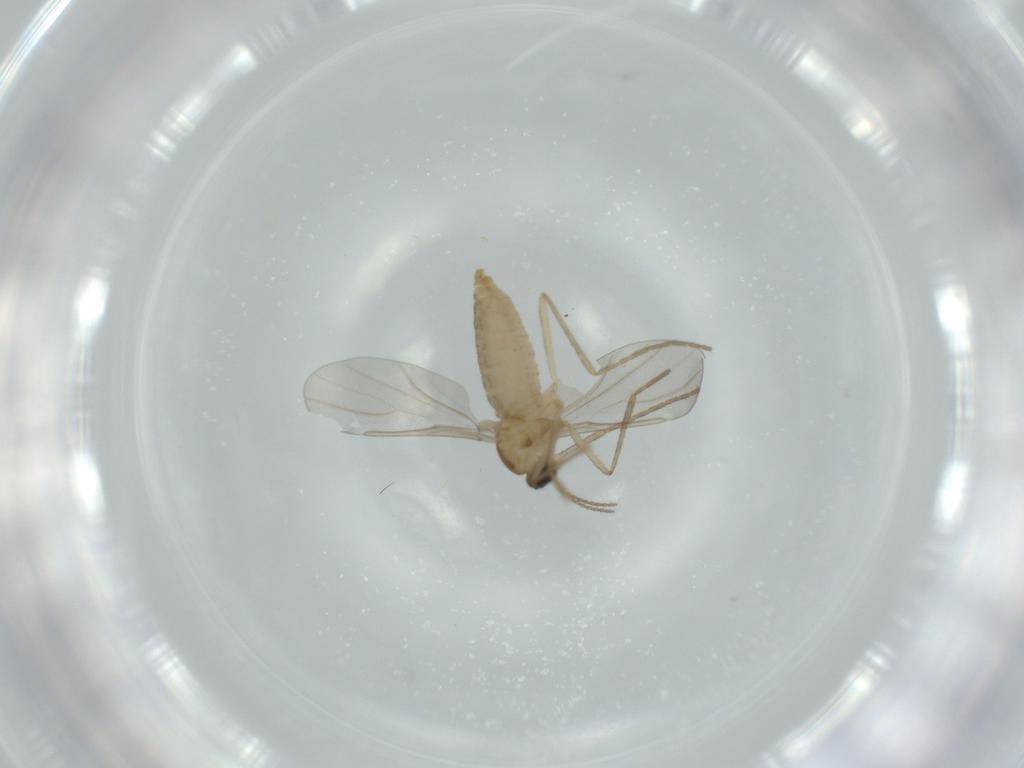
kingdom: Animalia
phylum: Arthropoda
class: Insecta
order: Diptera
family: Cecidomyiidae
